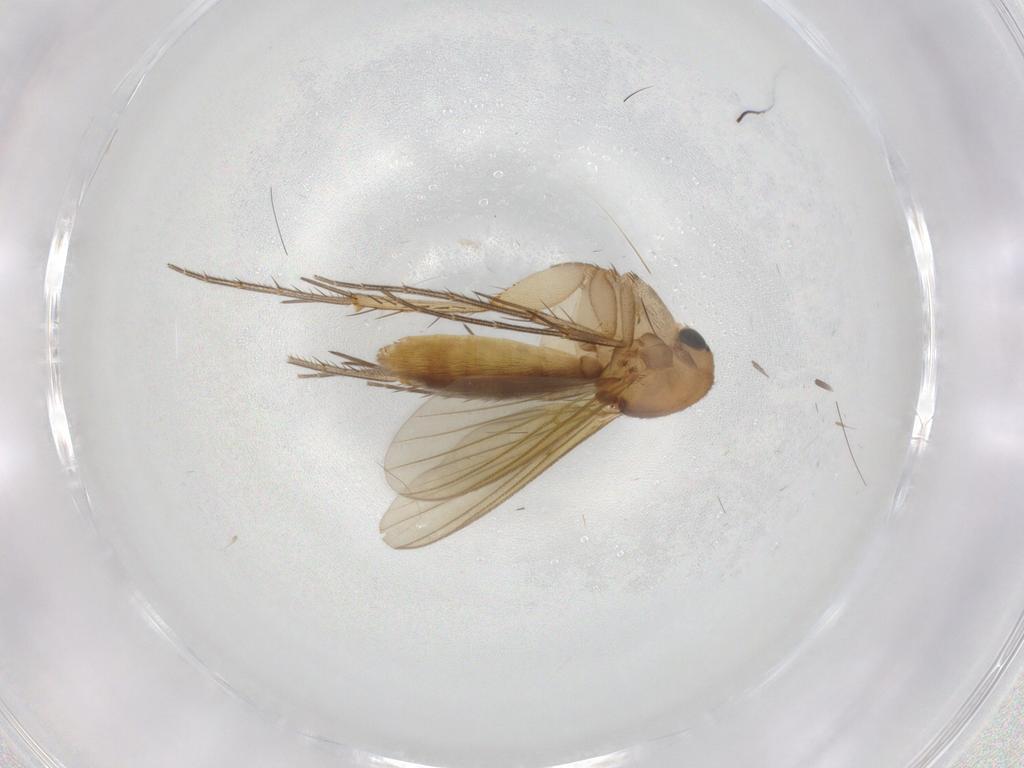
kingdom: Animalia
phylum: Arthropoda
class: Insecta
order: Diptera
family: Mycetophilidae
